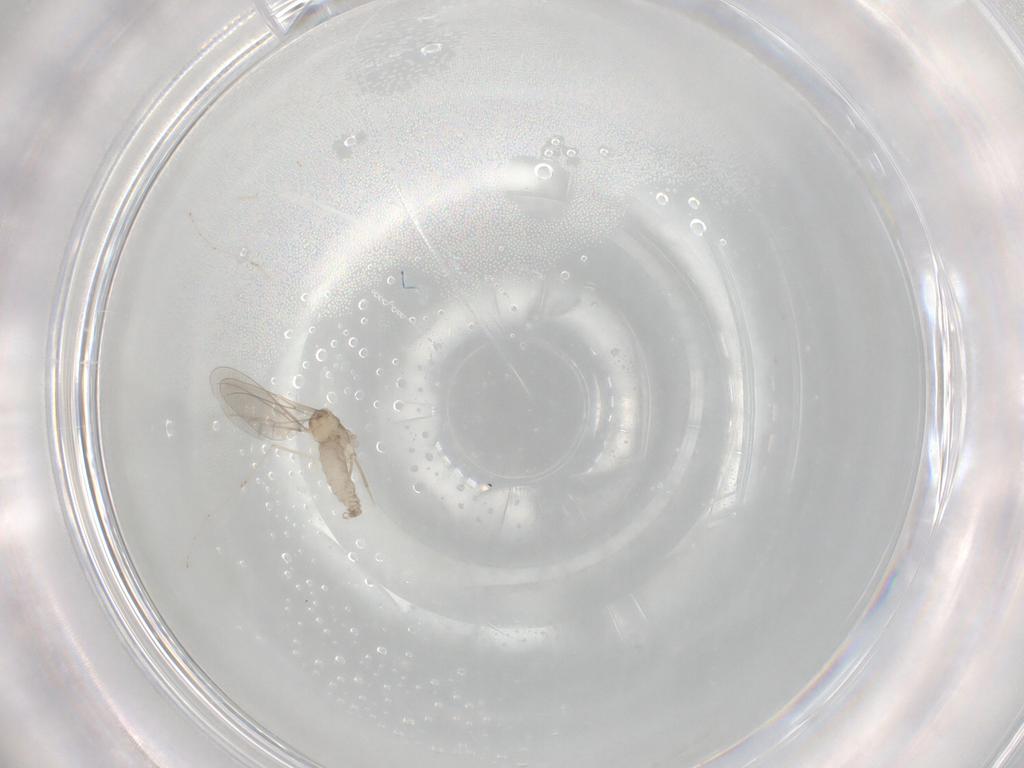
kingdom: Animalia
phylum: Arthropoda
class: Insecta
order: Diptera
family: Cecidomyiidae
